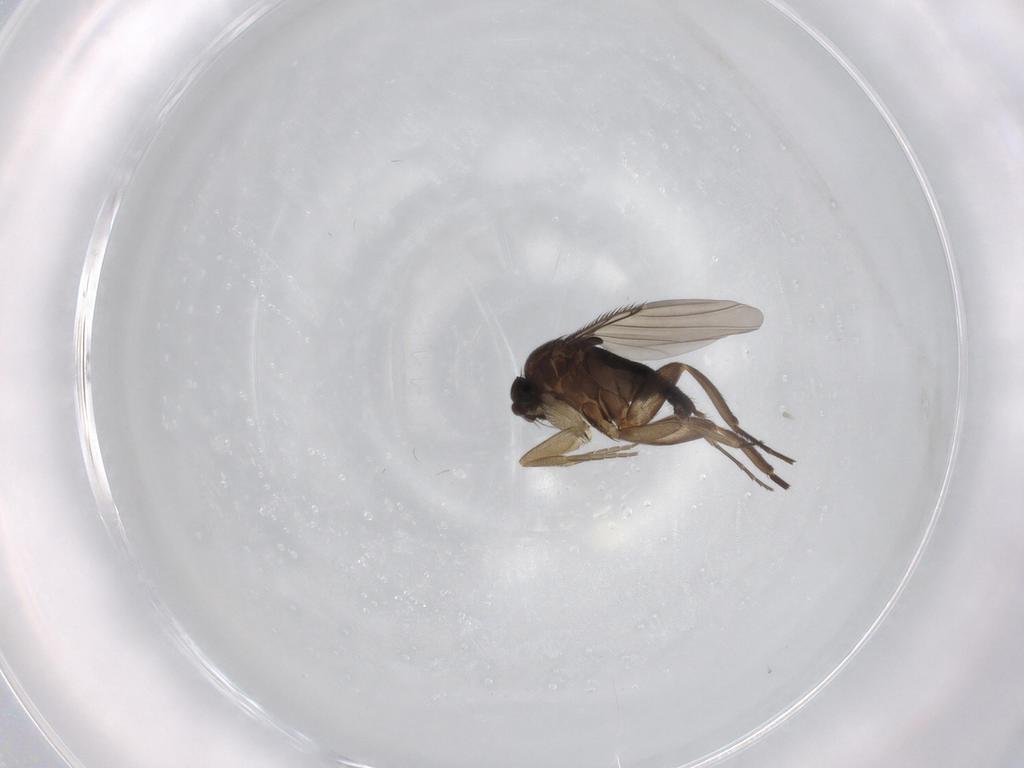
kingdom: Animalia
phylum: Arthropoda
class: Insecta
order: Diptera
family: Phoridae
